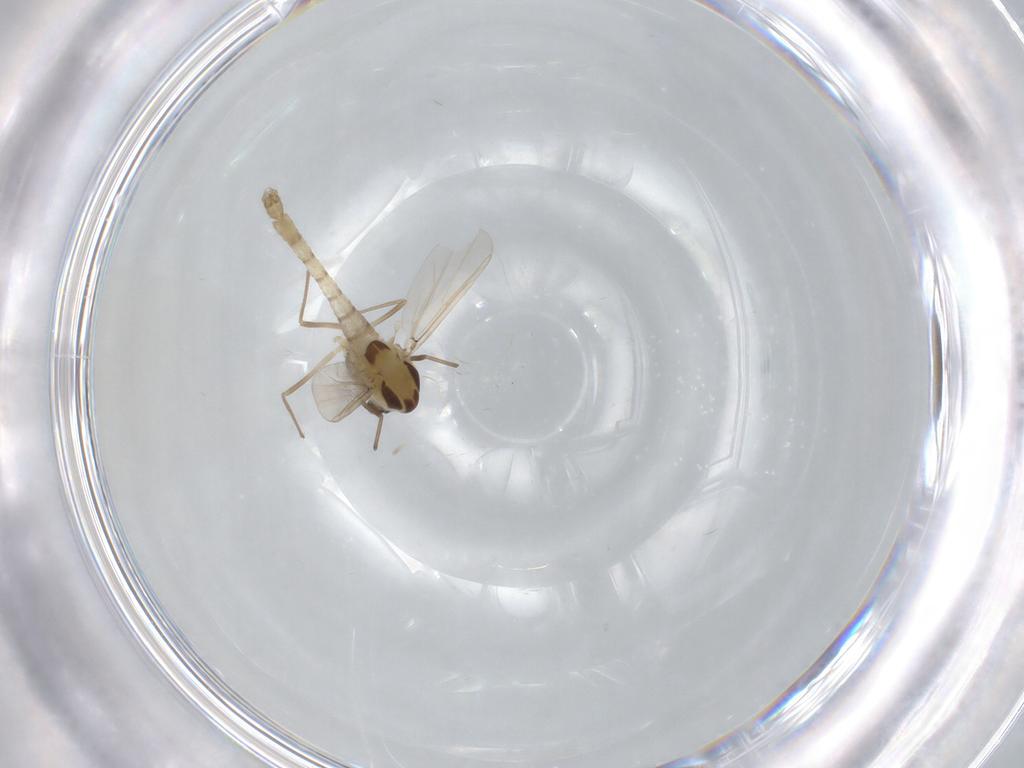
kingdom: Animalia
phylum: Arthropoda
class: Insecta
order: Diptera
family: Chironomidae
